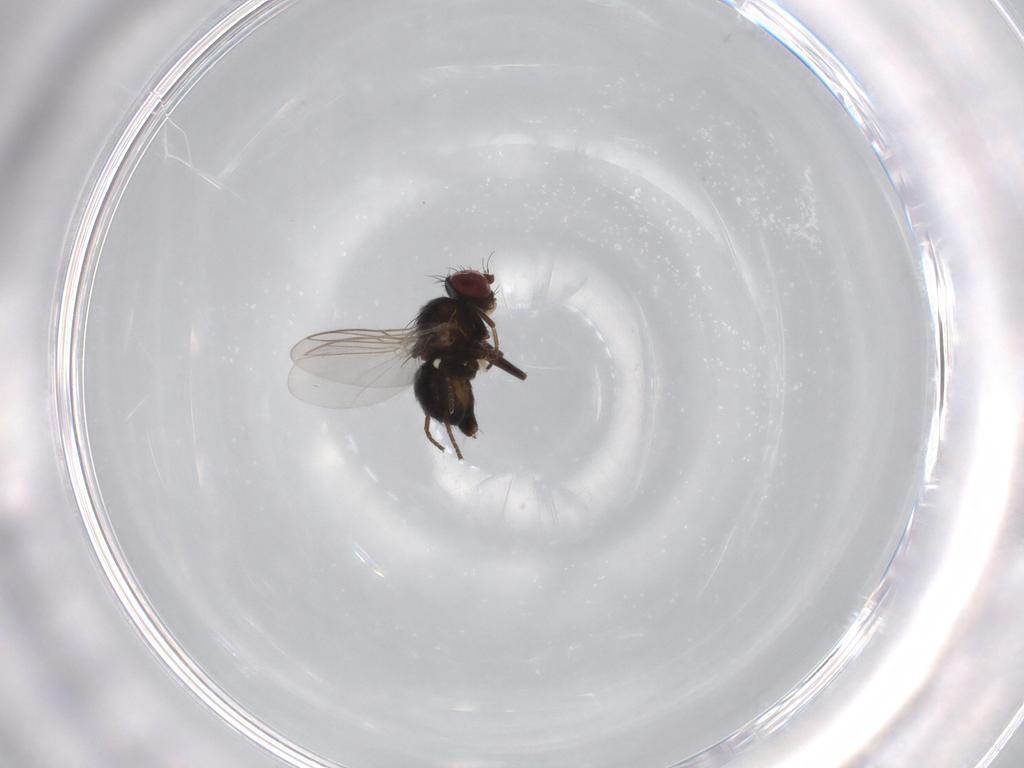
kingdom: Animalia
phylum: Arthropoda
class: Insecta
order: Diptera
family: Agromyzidae
